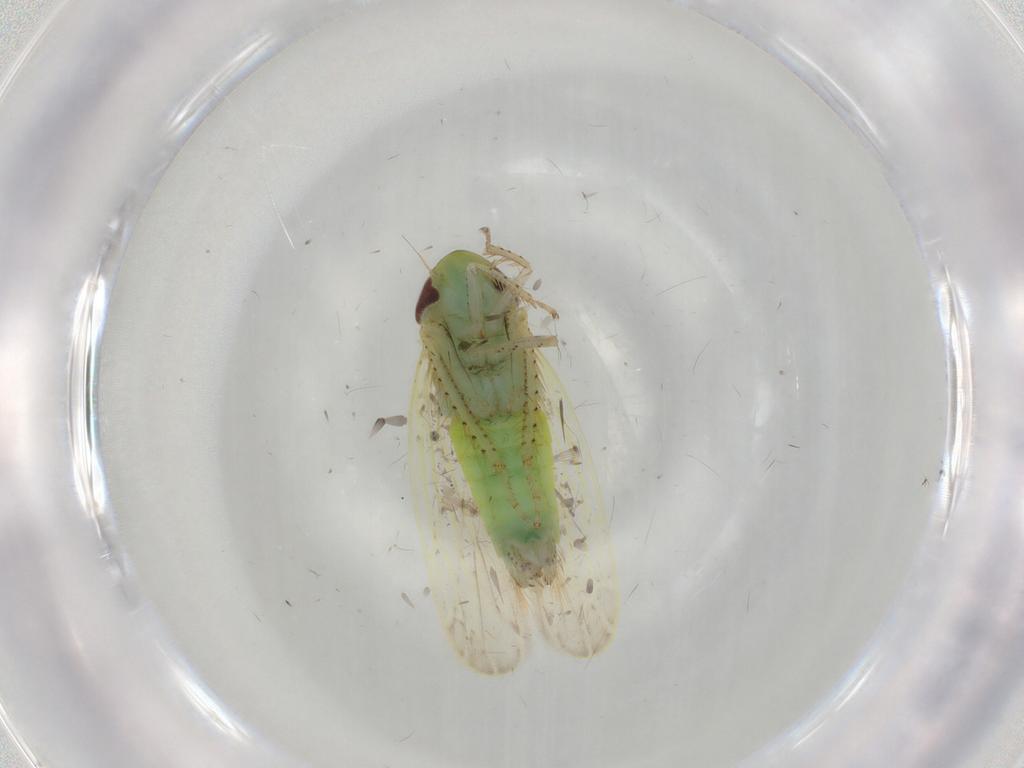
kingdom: Animalia
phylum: Arthropoda
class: Insecta
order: Hemiptera
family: Cicadellidae
